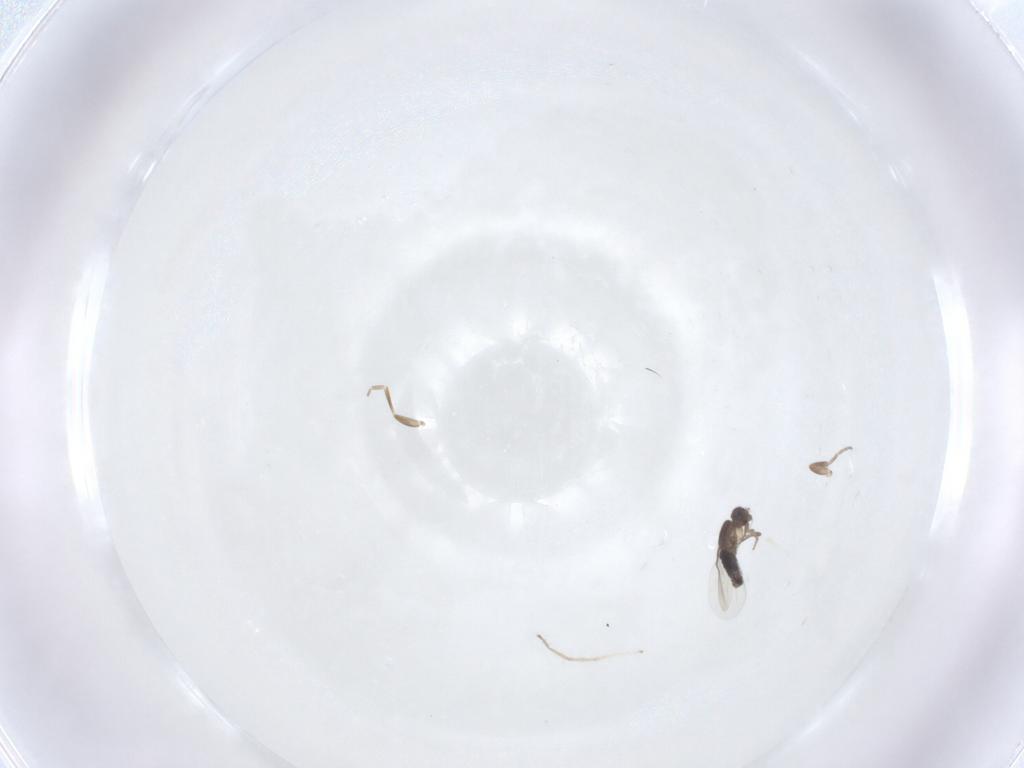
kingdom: Animalia
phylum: Arthropoda
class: Insecta
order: Diptera
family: Phoridae
